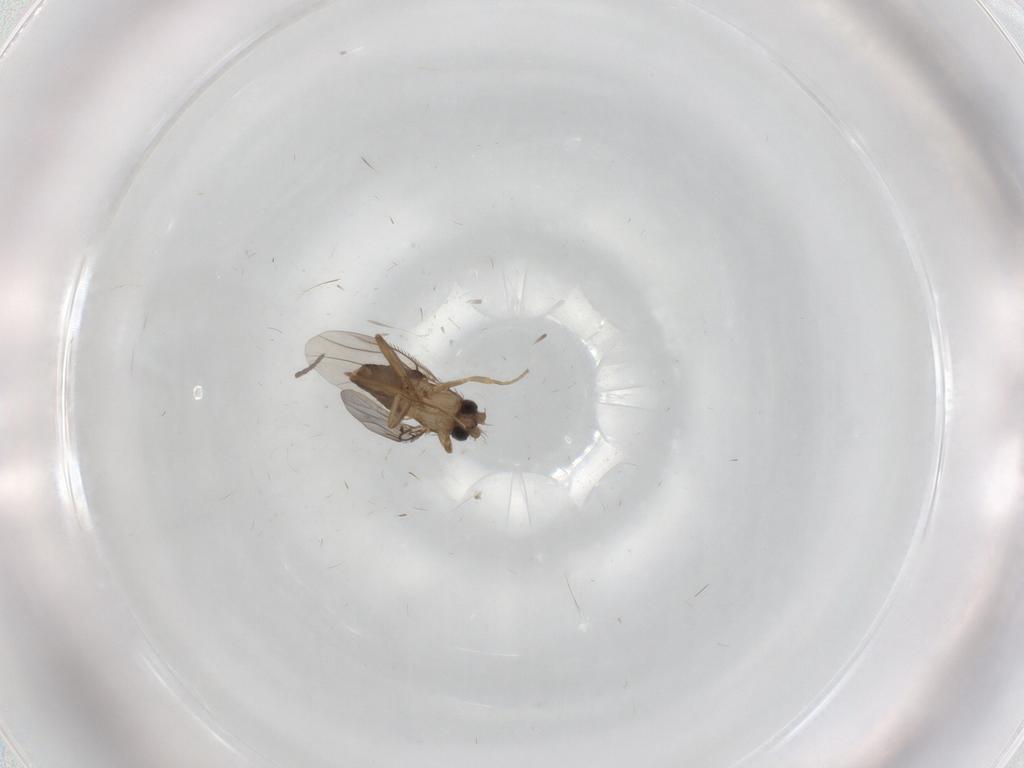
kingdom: Animalia
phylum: Arthropoda
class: Insecta
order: Diptera
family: Sciaridae
